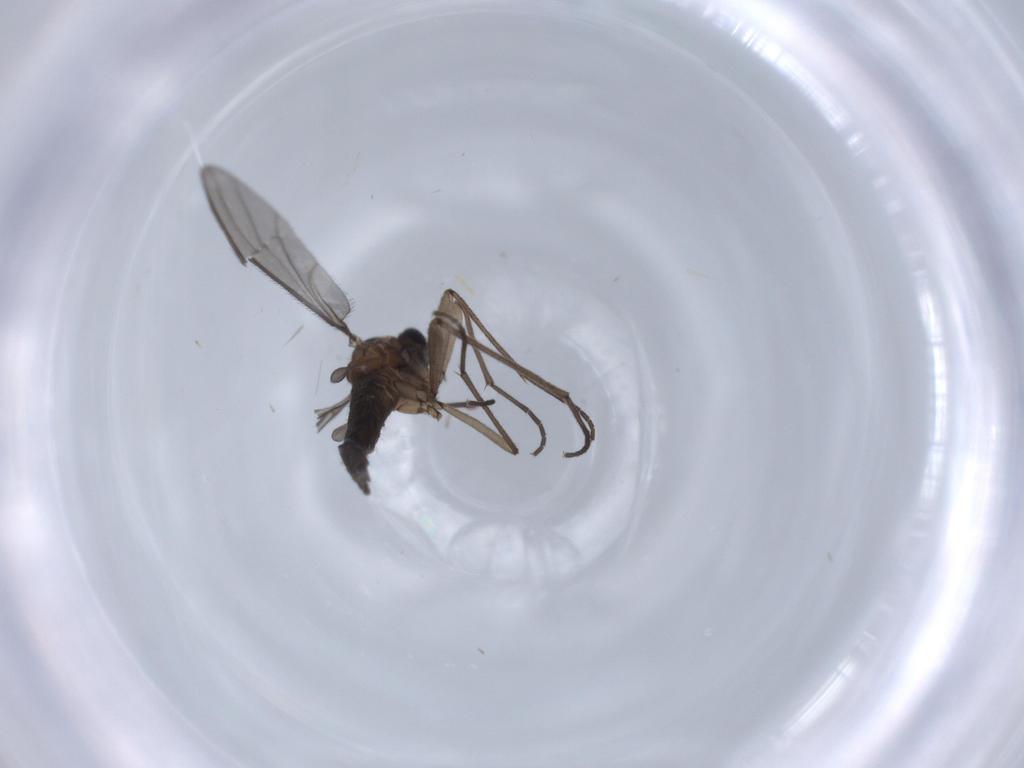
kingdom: Animalia
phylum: Arthropoda
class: Insecta
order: Diptera
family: Sciaridae
